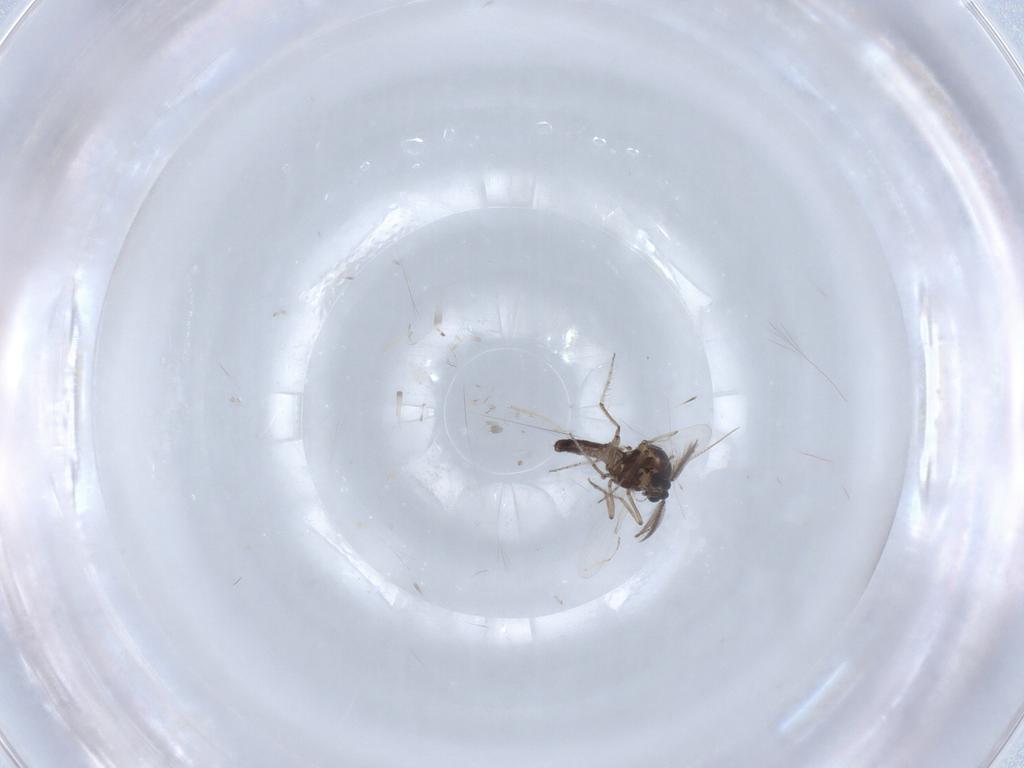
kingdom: Animalia
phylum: Arthropoda
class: Insecta
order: Diptera
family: Ceratopogonidae
